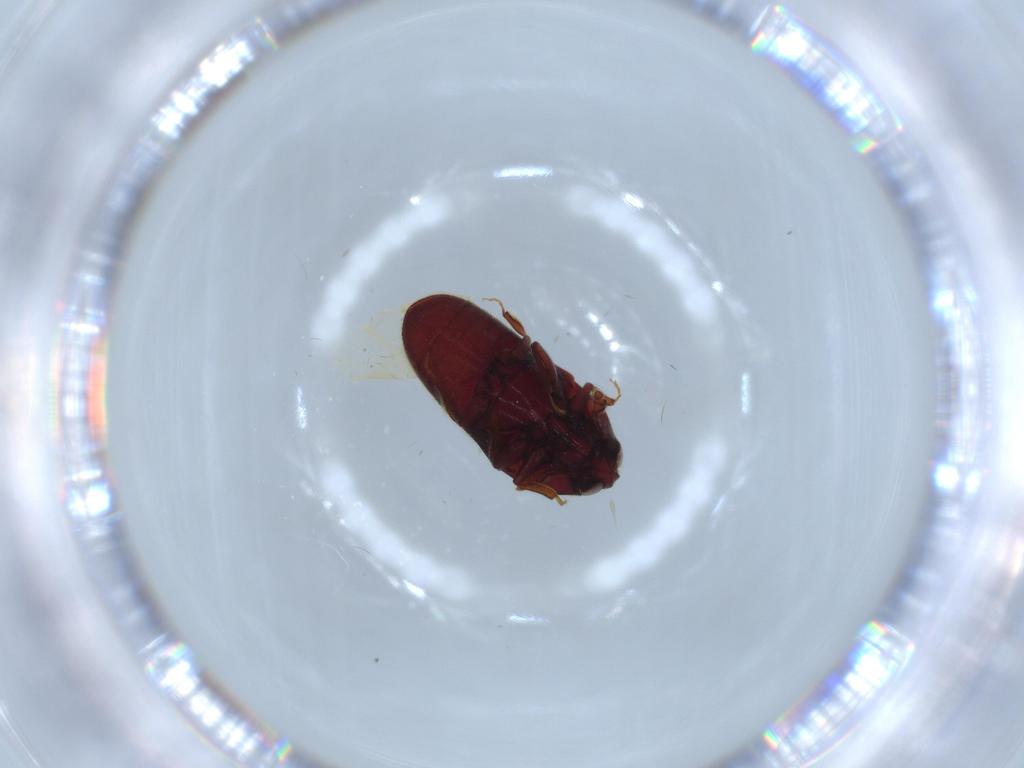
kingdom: Animalia
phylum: Arthropoda
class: Insecta
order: Coleoptera
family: Throscidae
